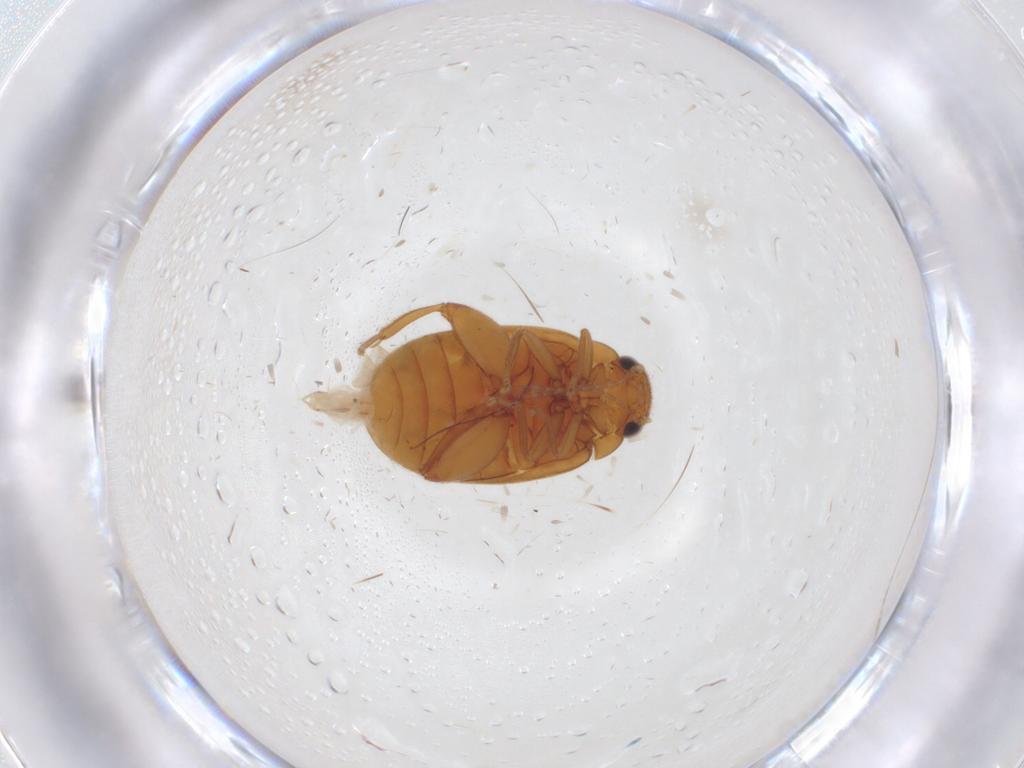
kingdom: Animalia
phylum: Arthropoda
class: Insecta
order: Coleoptera
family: Scirtidae
